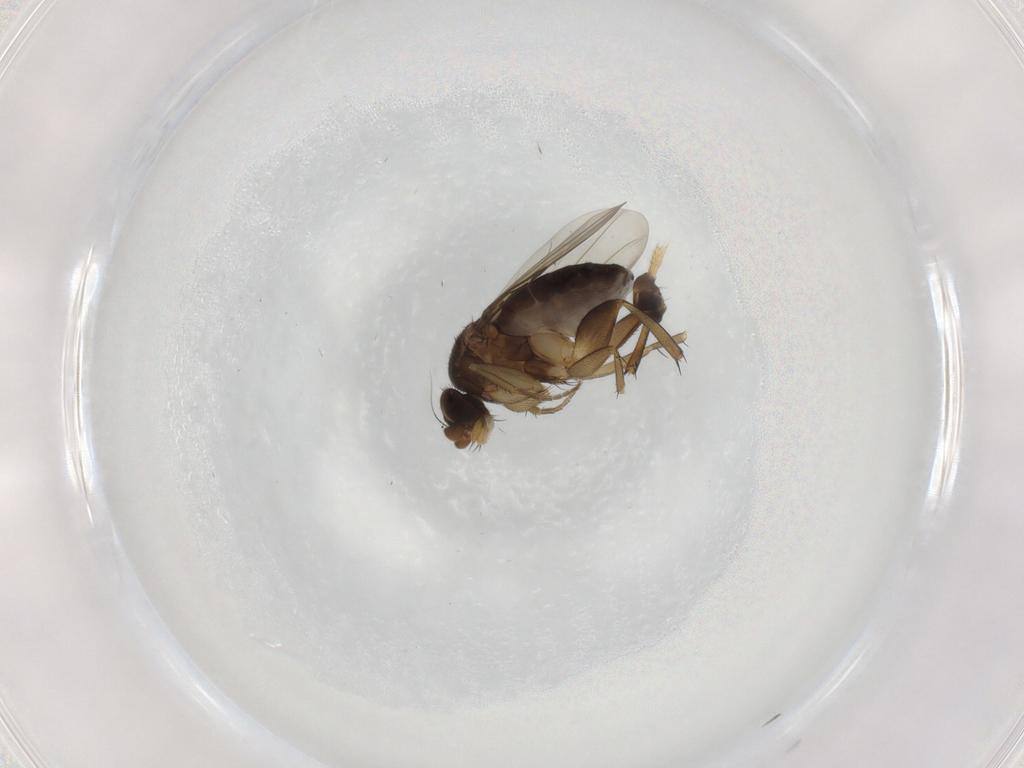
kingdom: Animalia
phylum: Arthropoda
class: Insecta
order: Diptera
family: Phoridae
